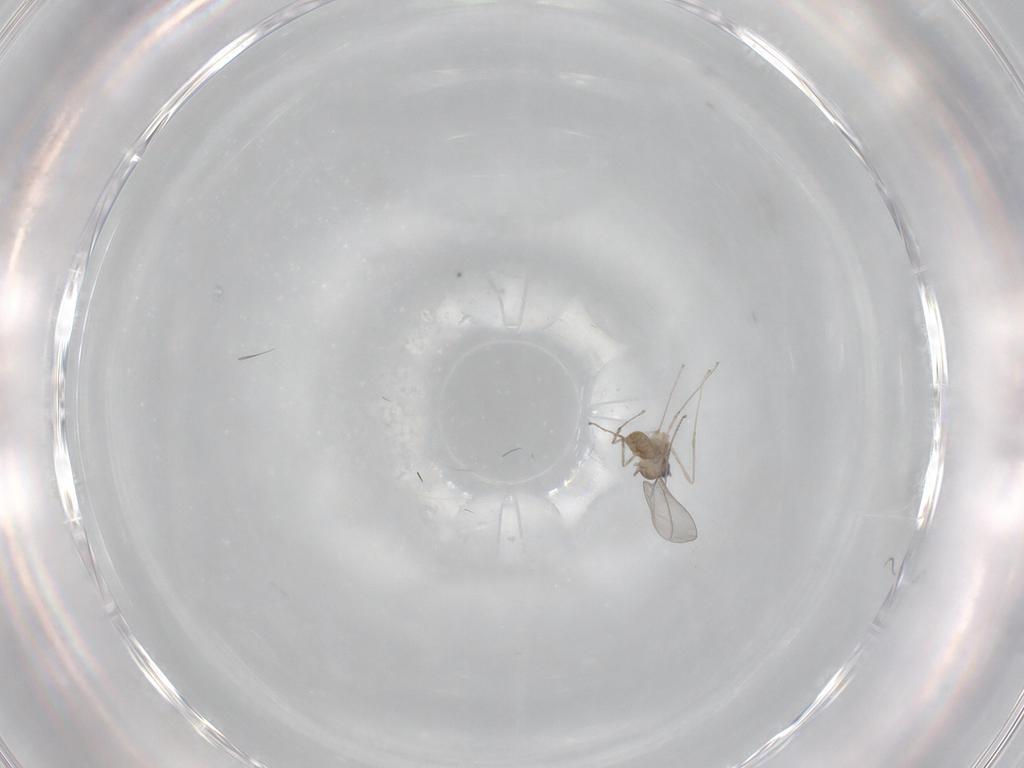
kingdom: Animalia
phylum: Arthropoda
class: Insecta
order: Diptera
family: Cecidomyiidae
